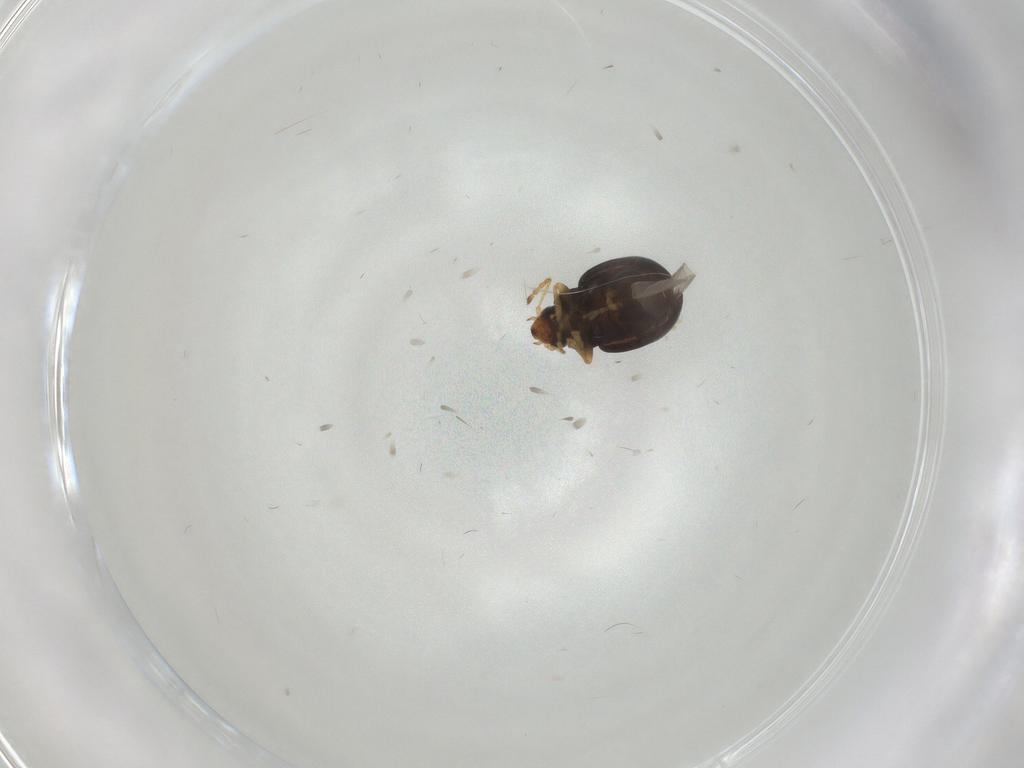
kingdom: Animalia
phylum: Arthropoda
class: Insecta
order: Coleoptera
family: Chrysomelidae
